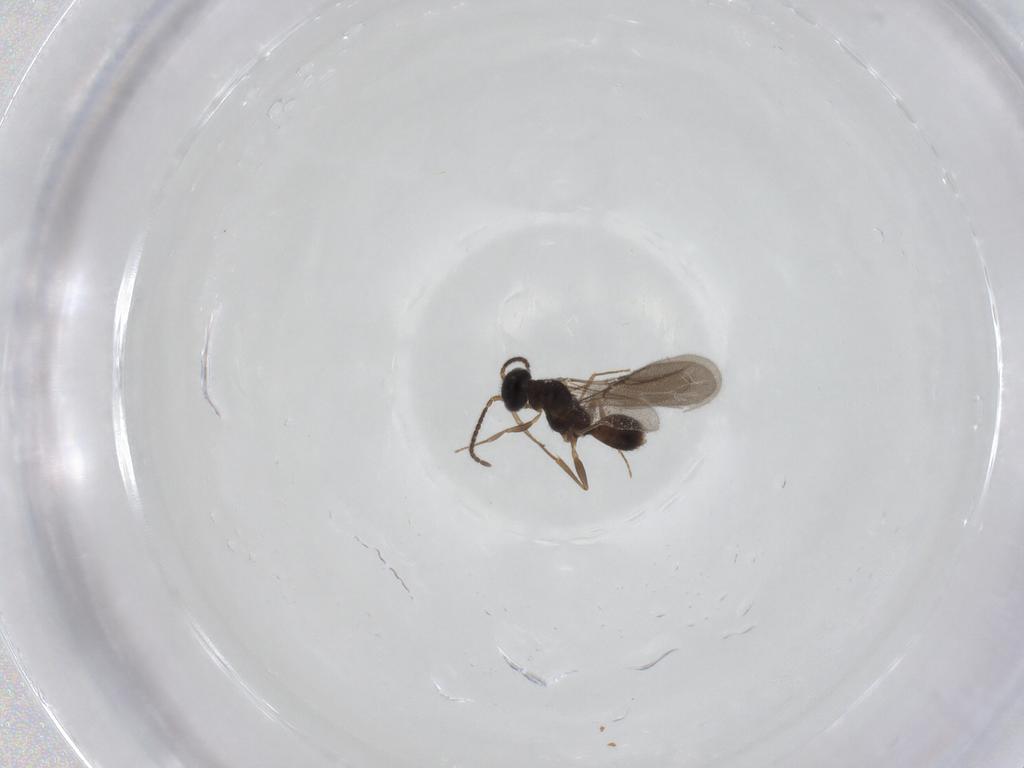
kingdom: Animalia
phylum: Arthropoda
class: Insecta
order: Hymenoptera
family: Bethylidae
